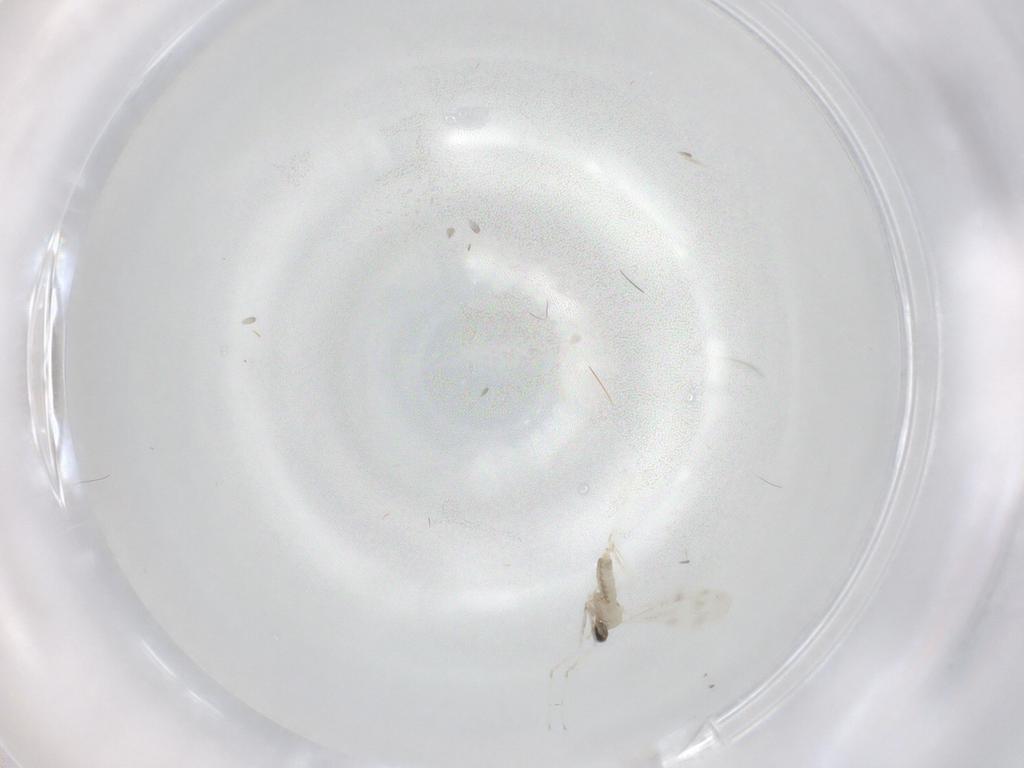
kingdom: Animalia
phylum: Arthropoda
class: Insecta
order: Diptera
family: Cecidomyiidae
